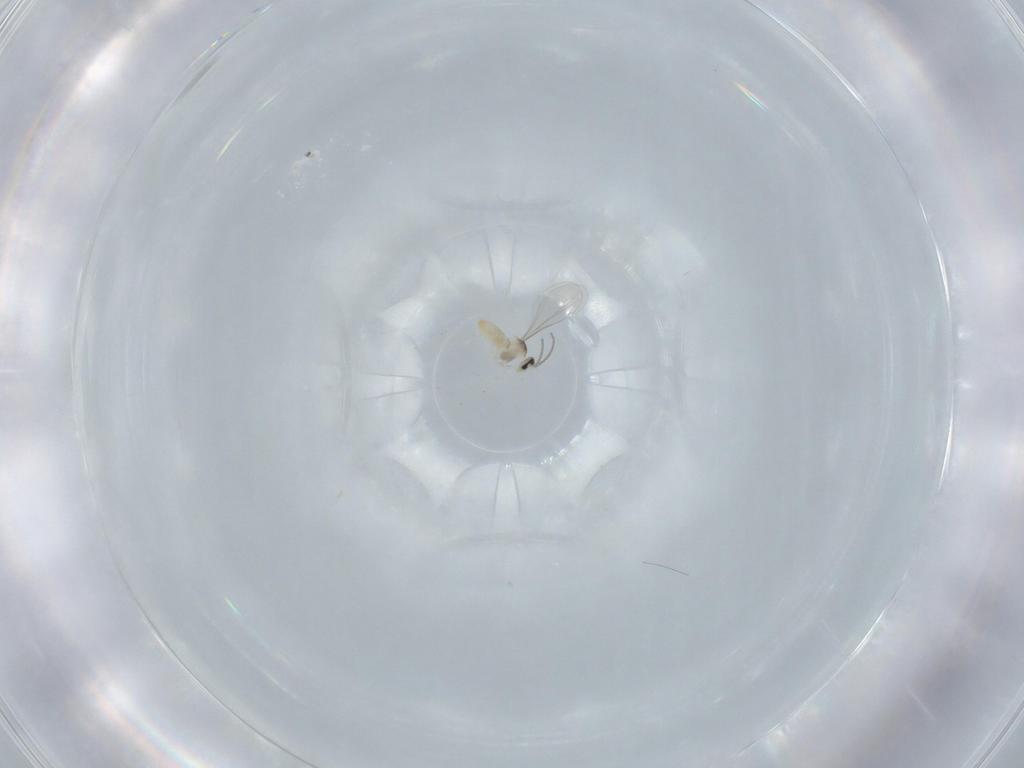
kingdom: Animalia
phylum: Arthropoda
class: Insecta
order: Diptera
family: Cecidomyiidae
